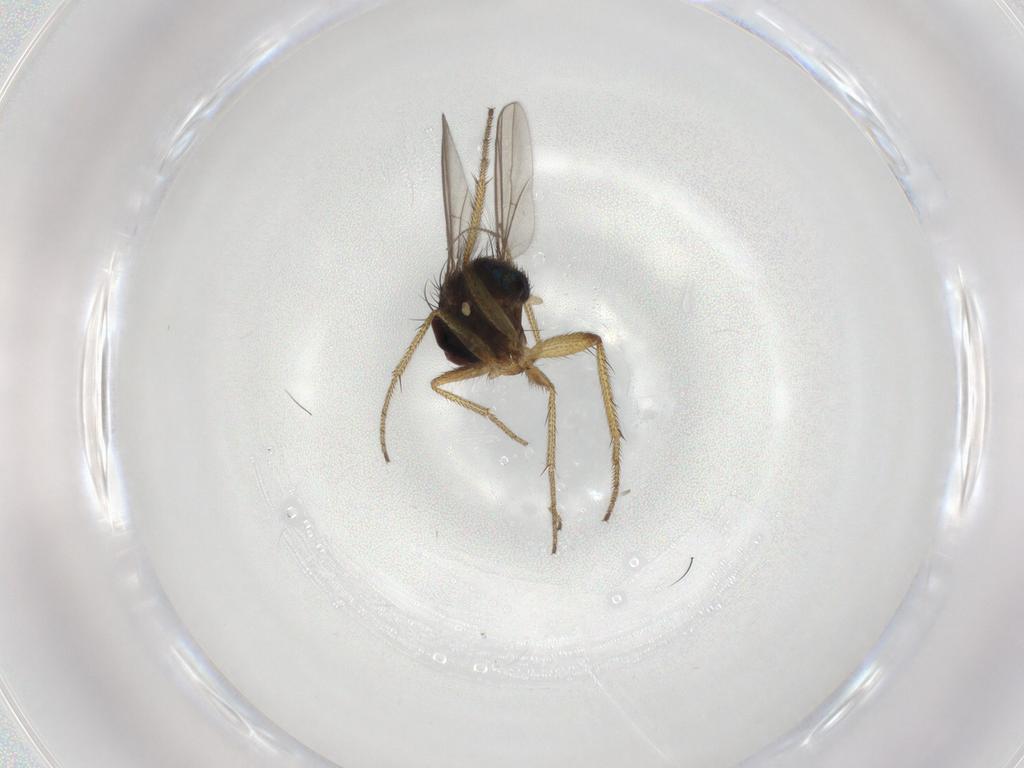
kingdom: Animalia
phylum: Arthropoda
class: Insecta
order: Diptera
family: Dolichopodidae
